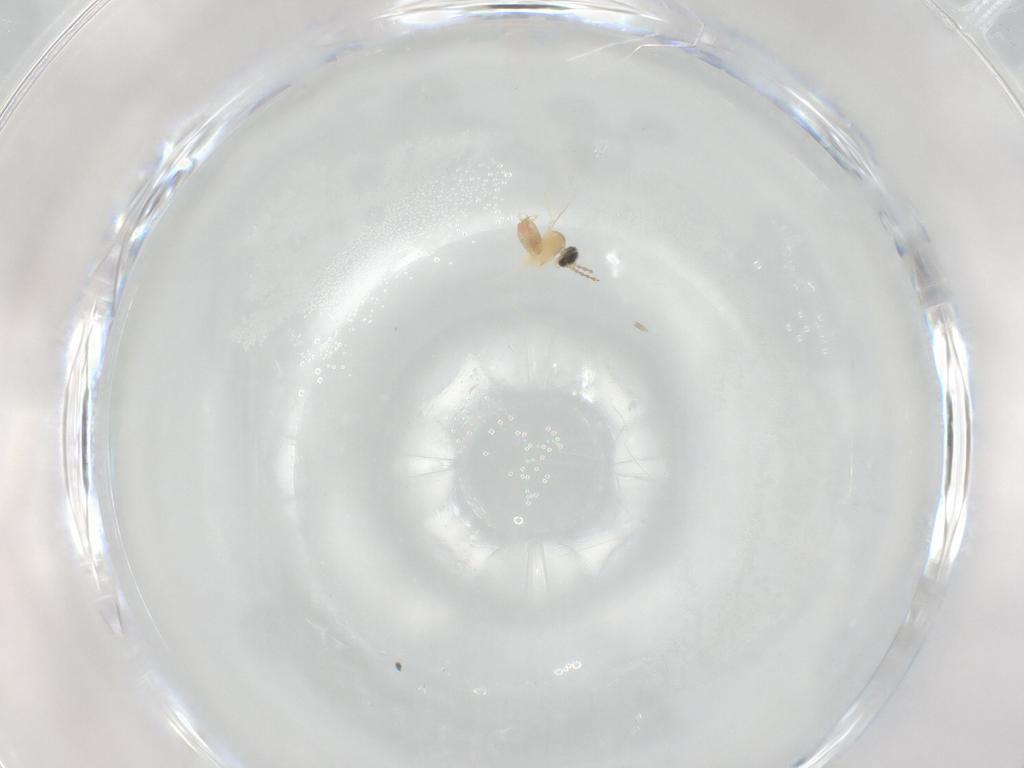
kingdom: Animalia
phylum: Arthropoda
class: Insecta
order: Diptera
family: Cecidomyiidae
